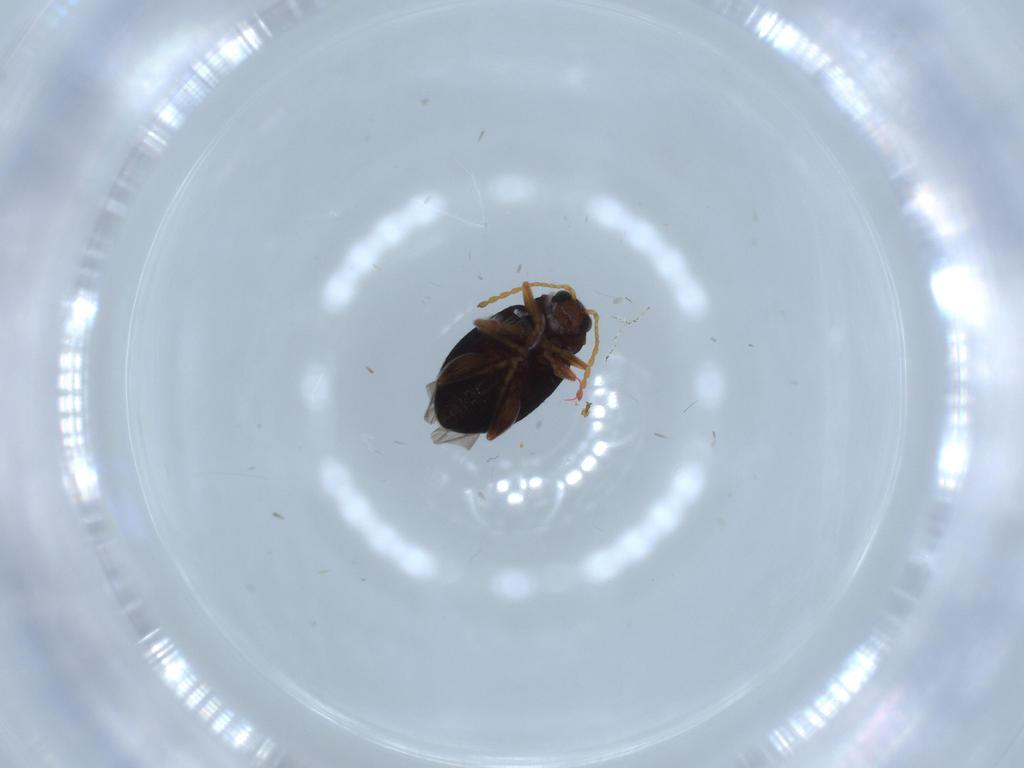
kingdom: Animalia
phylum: Arthropoda
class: Insecta
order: Coleoptera
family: Chrysomelidae
